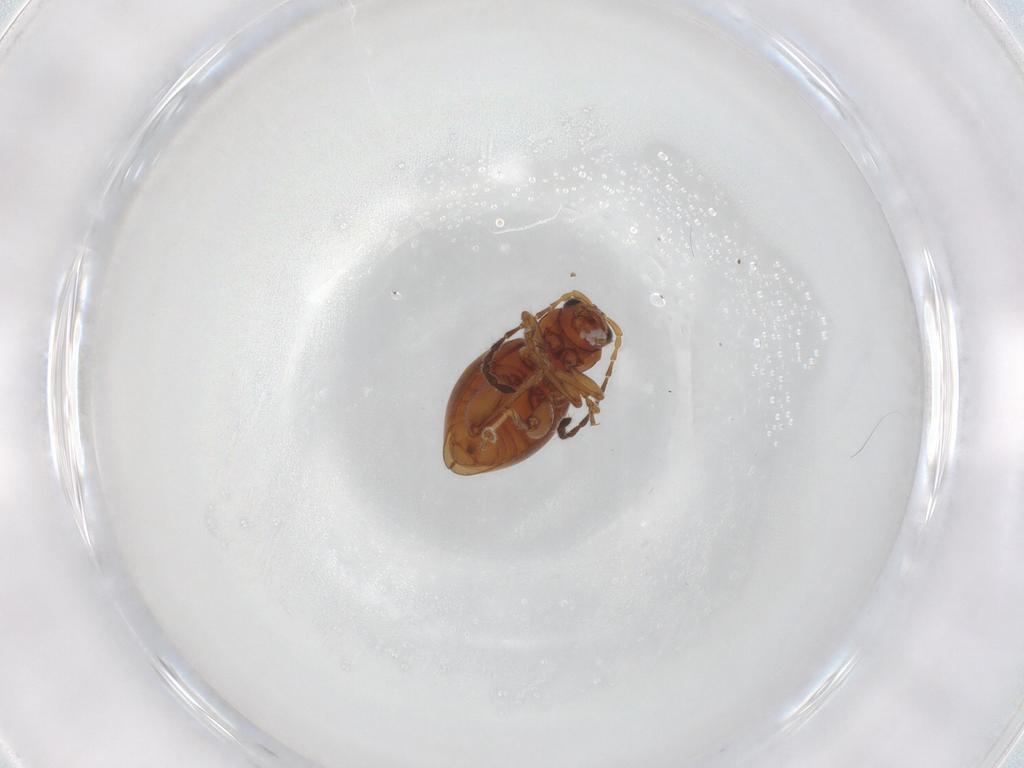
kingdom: Animalia
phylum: Arthropoda
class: Insecta
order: Coleoptera
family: Chrysomelidae
